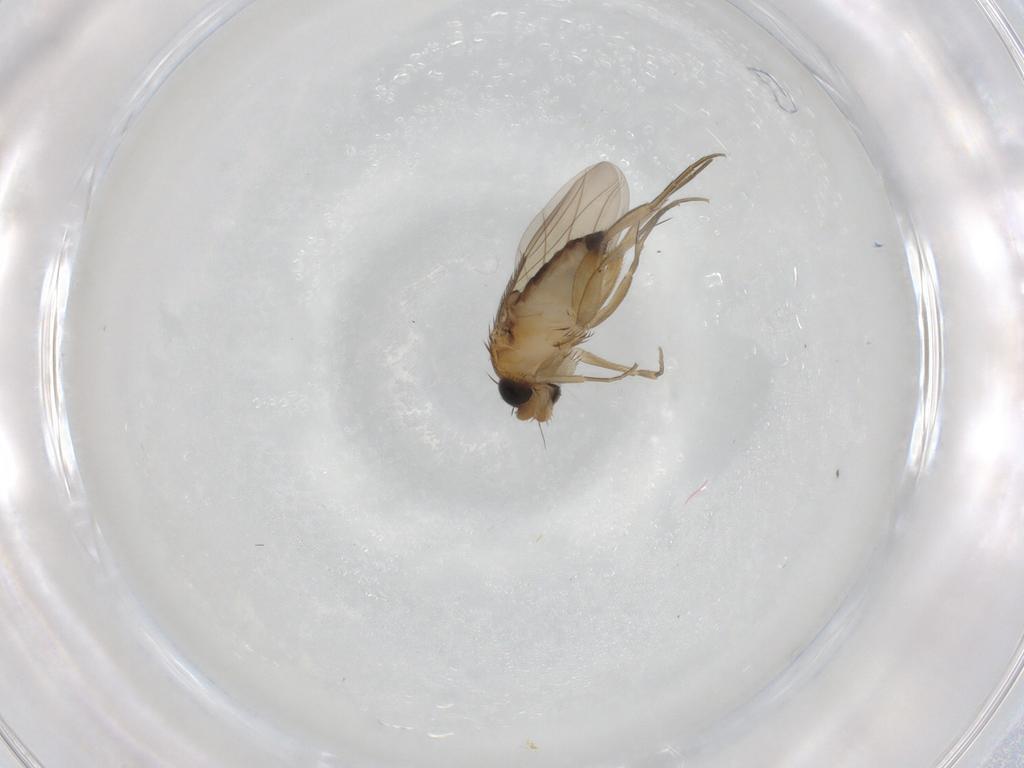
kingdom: Animalia
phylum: Arthropoda
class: Insecta
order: Diptera
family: Phoridae
